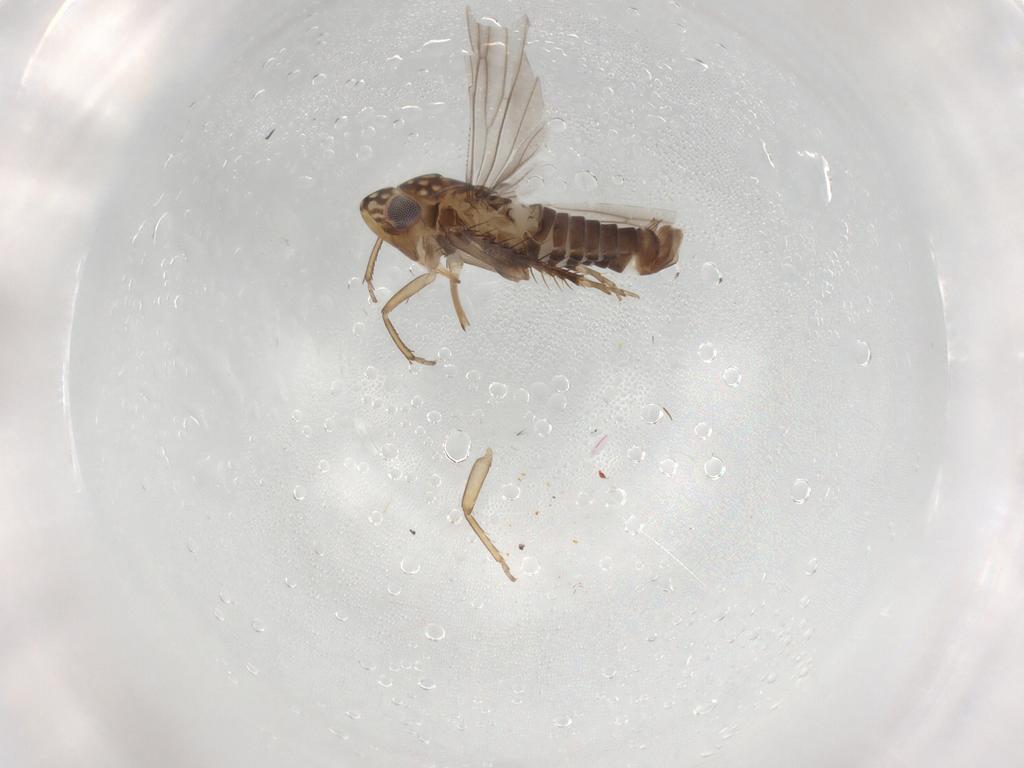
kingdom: Animalia
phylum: Arthropoda
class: Insecta
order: Hemiptera
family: Cicadellidae
